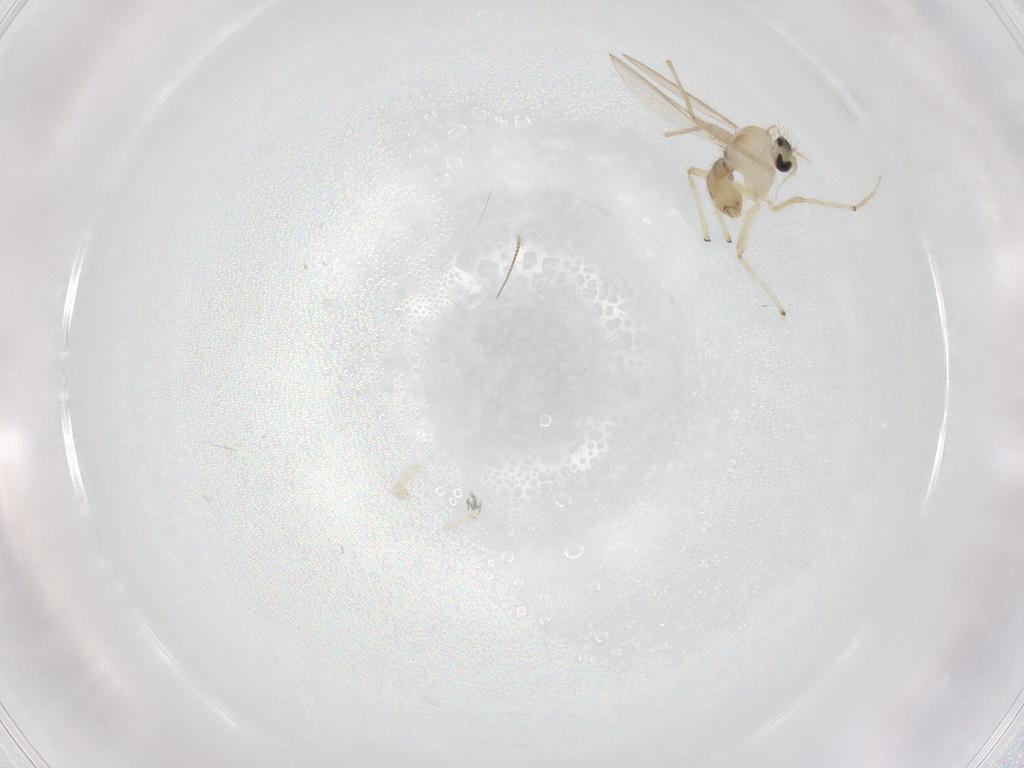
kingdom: Animalia
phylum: Arthropoda
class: Insecta
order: Diptera
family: Chironomidae
